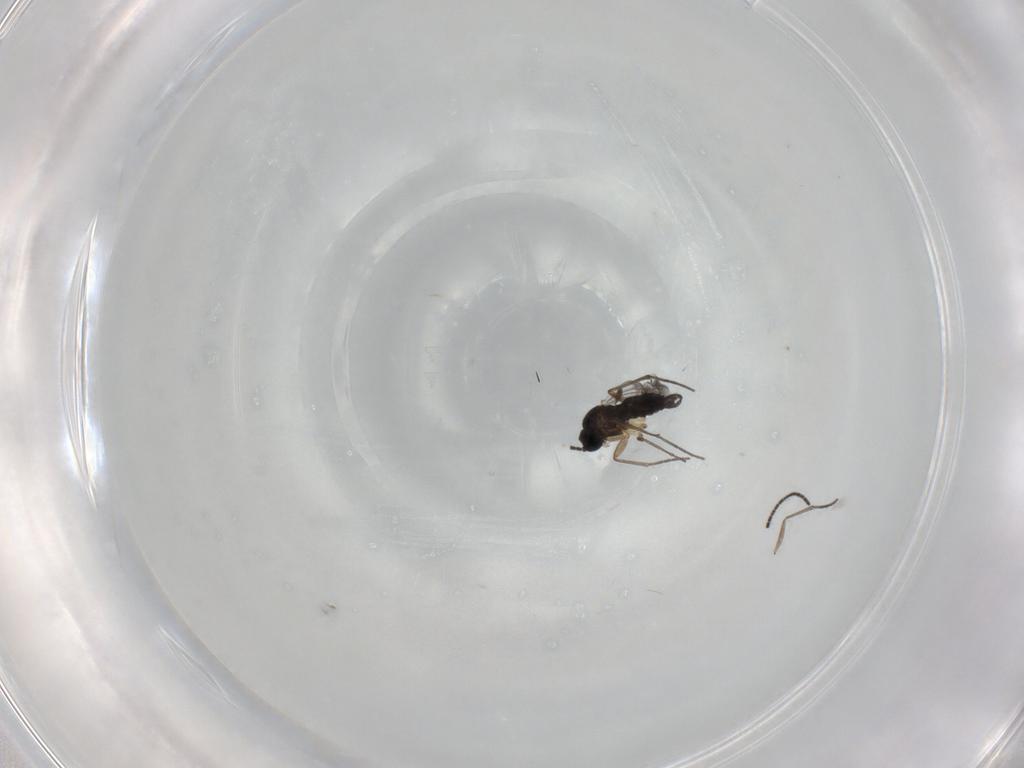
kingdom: Animalia
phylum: Arthropoda
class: Insecta
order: Diptera
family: Sciaridae
